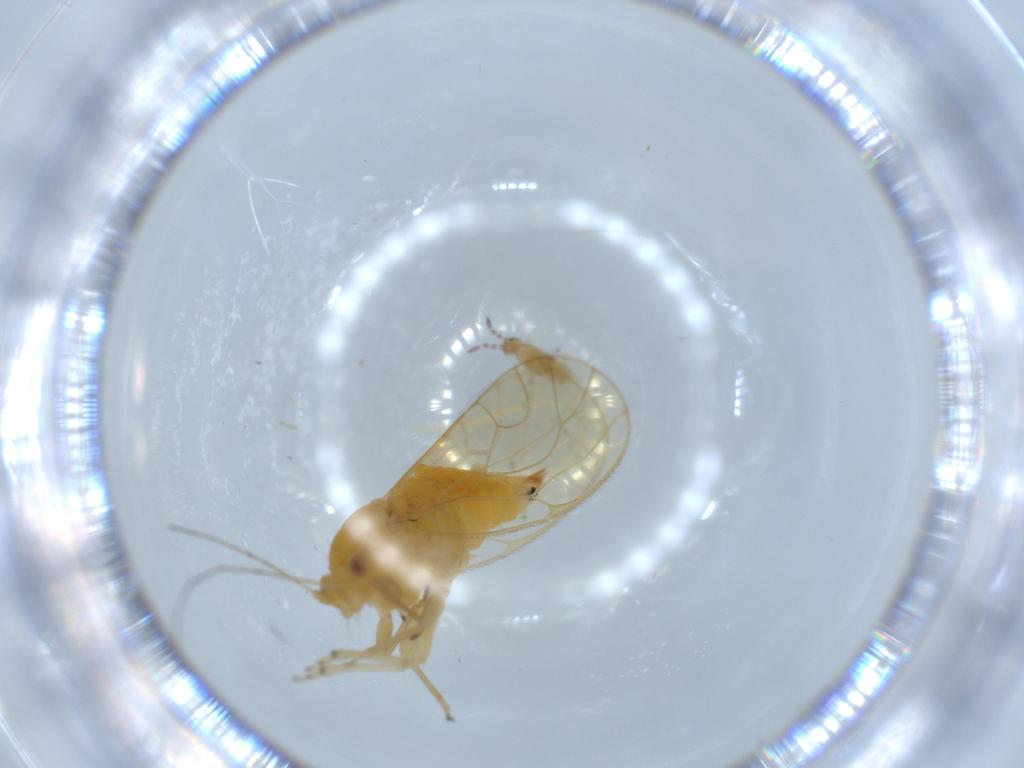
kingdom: Animalia
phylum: Arthropoda
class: Insecta
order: Hemiptera
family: Psyllidae
